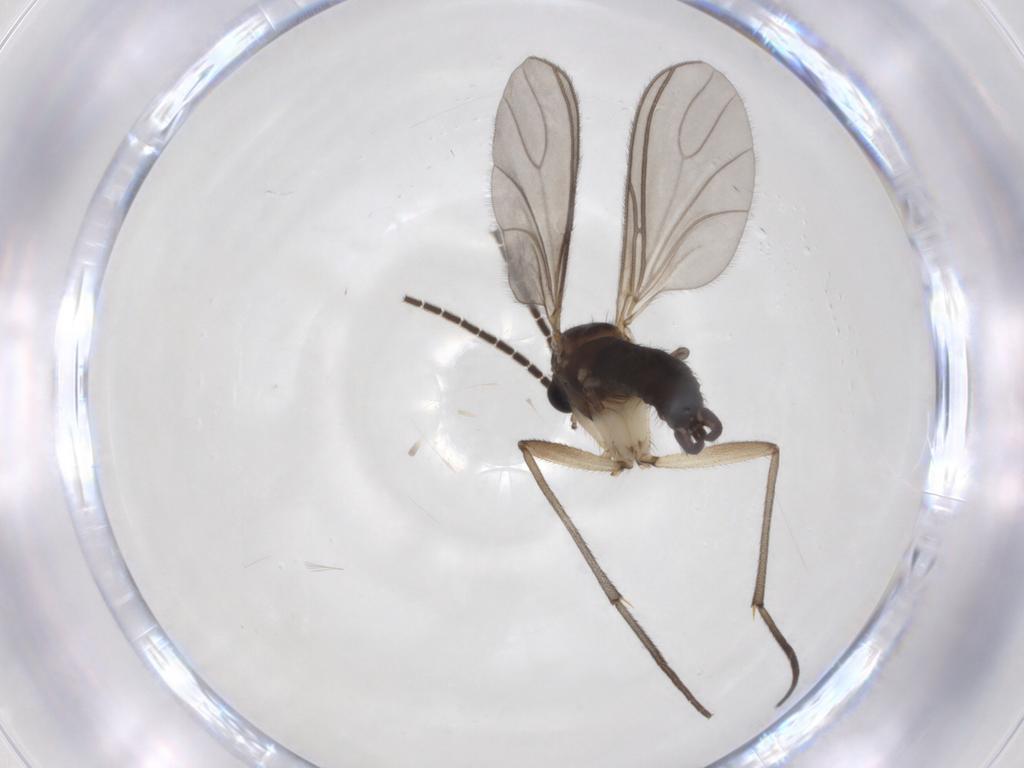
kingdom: Animalia
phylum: Arthropoda
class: Insecta
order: Diptera
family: Sciaridae
